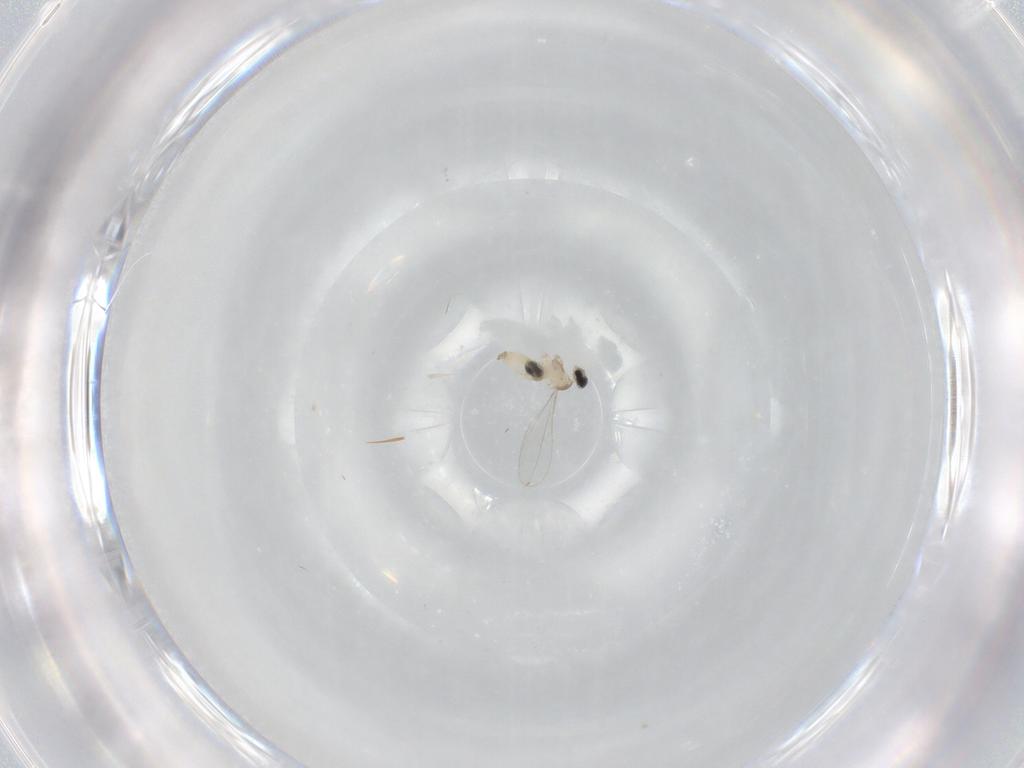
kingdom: Animalia
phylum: Arthropoda
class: Insecta
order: Diptera
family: Cecidomyiidae
